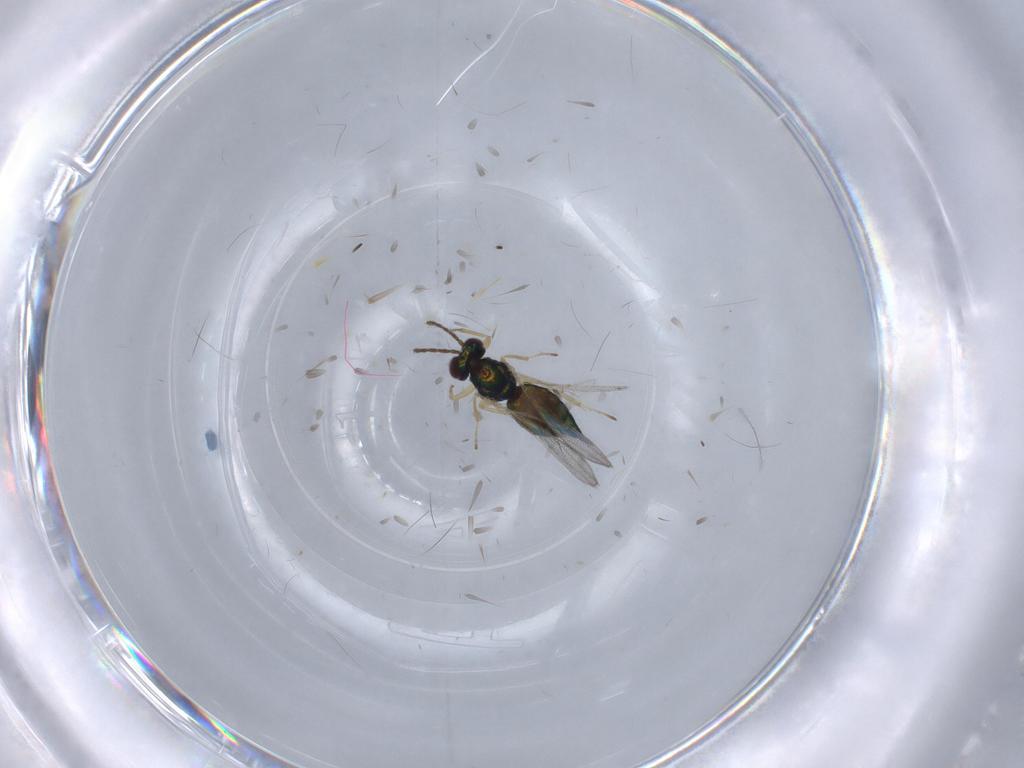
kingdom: Animalia
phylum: Arthropoda
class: Insecta
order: Hymenoptera
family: Eulophidae
